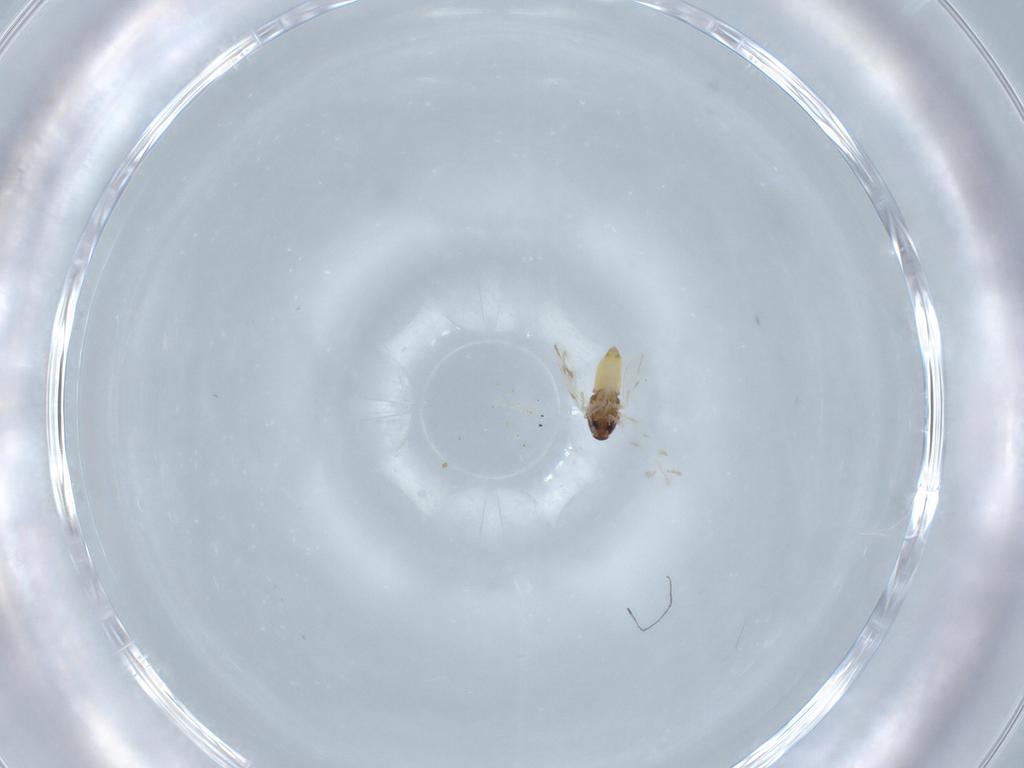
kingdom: Animalia
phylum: Arthropoda
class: Insecta
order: Hemiptera
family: Aleyrodidae
